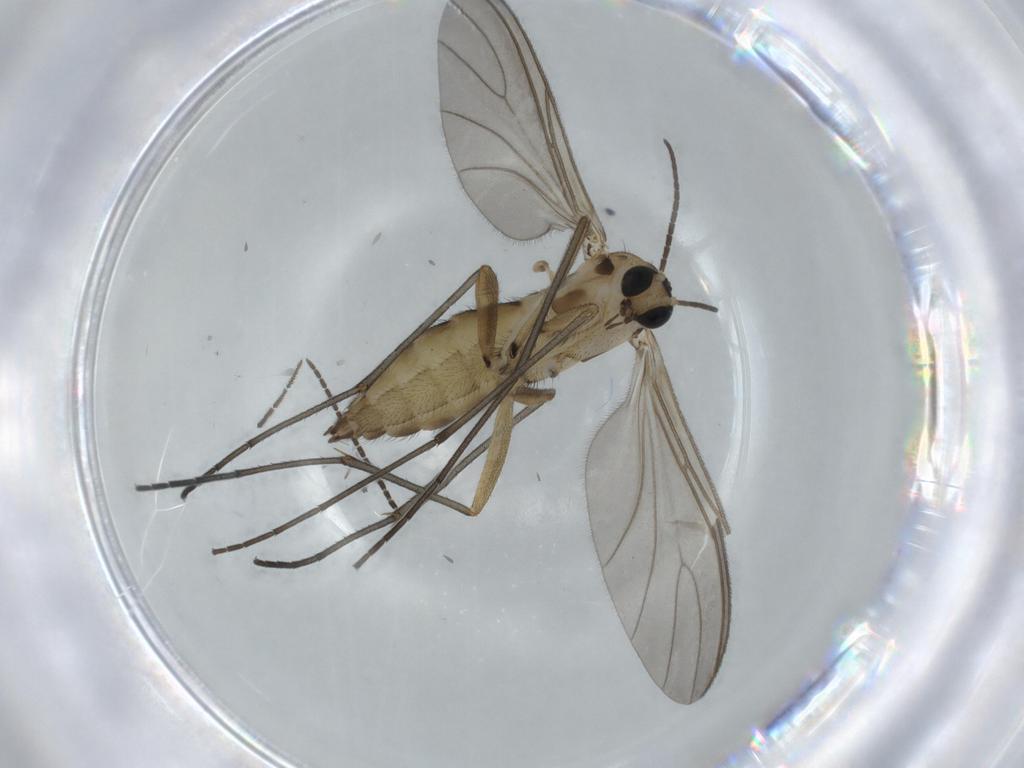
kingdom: Animalia
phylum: Arthropoda
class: Insecta
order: Diptera
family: Sciaridae
